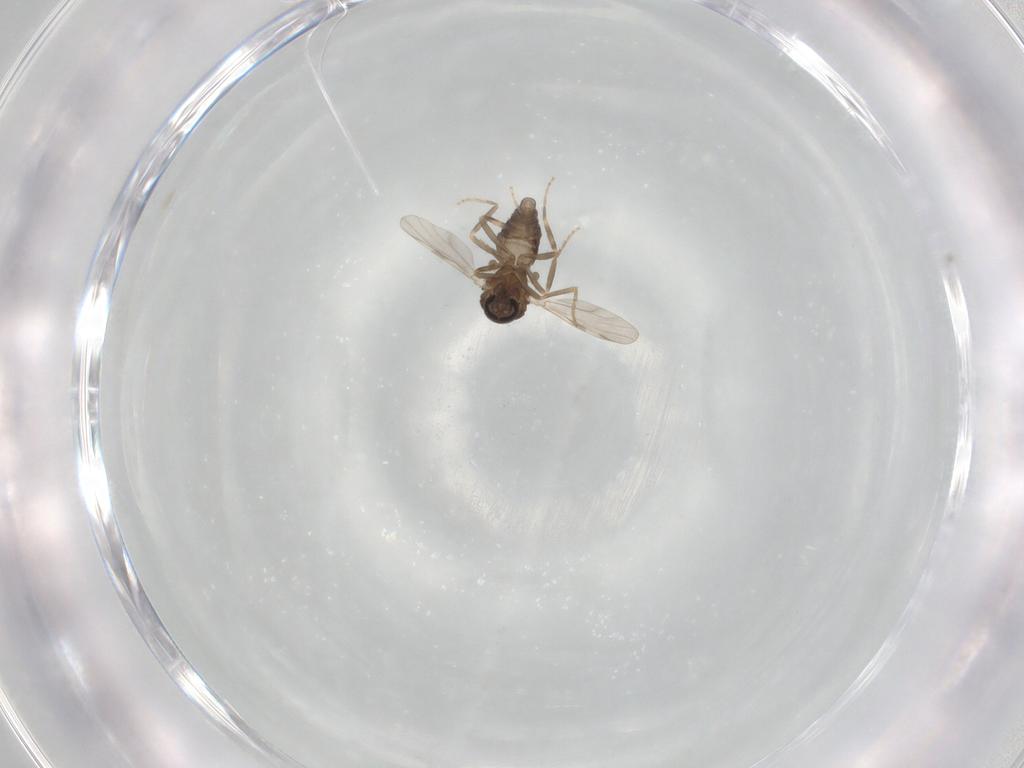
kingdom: Animalia
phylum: Arthropoda
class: Insecta
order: Diptera
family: Ceratopogonidae
